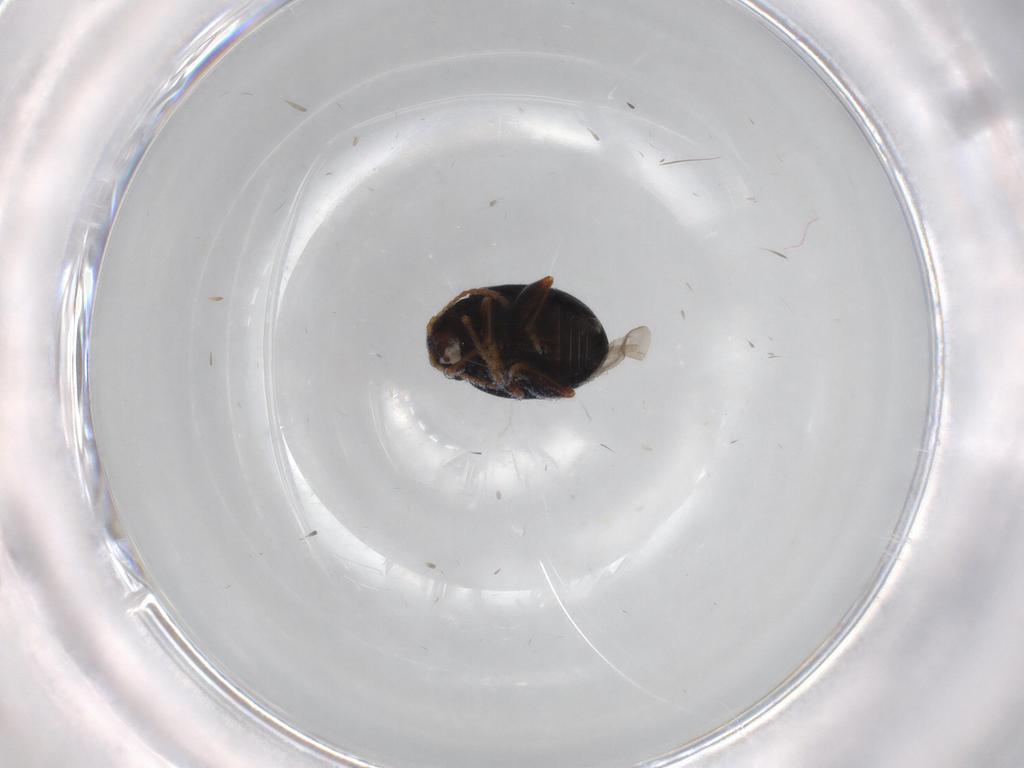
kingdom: Animalia
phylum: Arthropoda
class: Insecta
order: Coleoptera
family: Chrysomelidae
